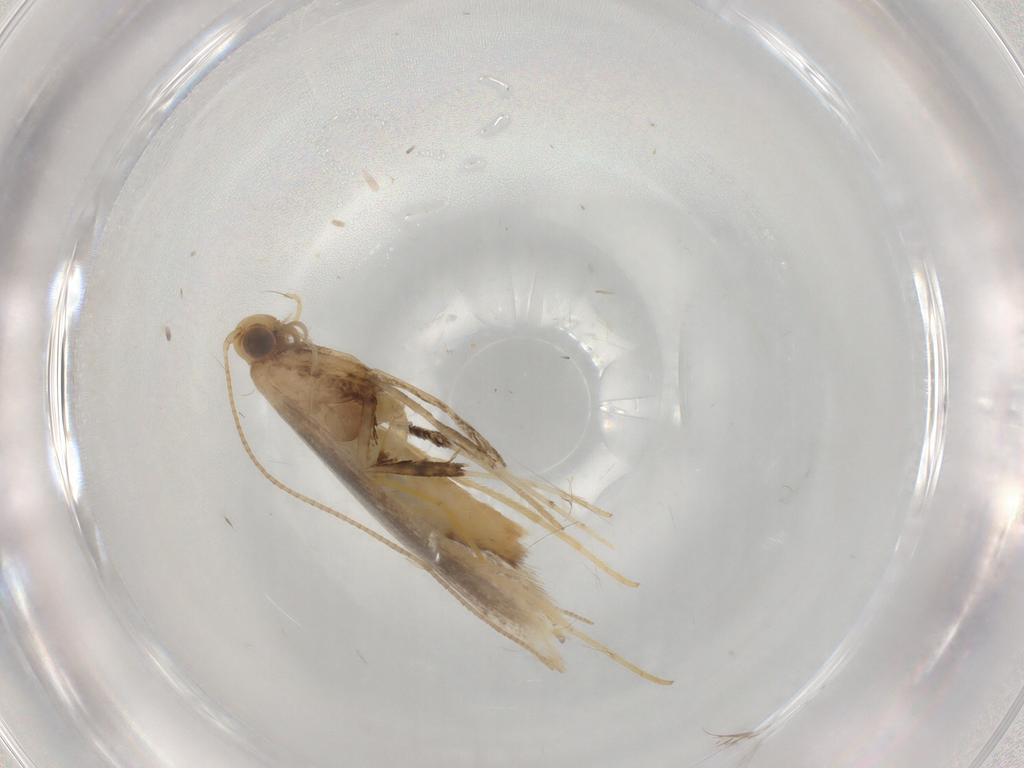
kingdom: Animalia
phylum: Arthropoda
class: Insecta
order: Lepidoptera
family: Gracillariidae
